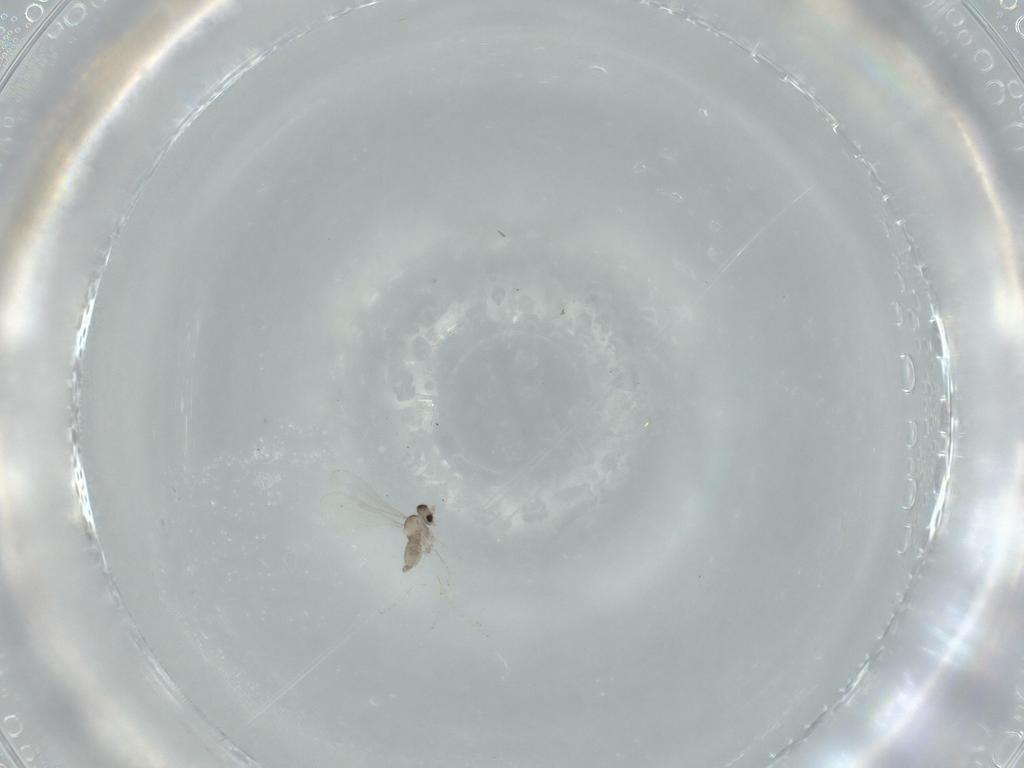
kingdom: Animalia
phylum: Arthropoda
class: Insecta
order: Diptera
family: Cecidomyiidae
